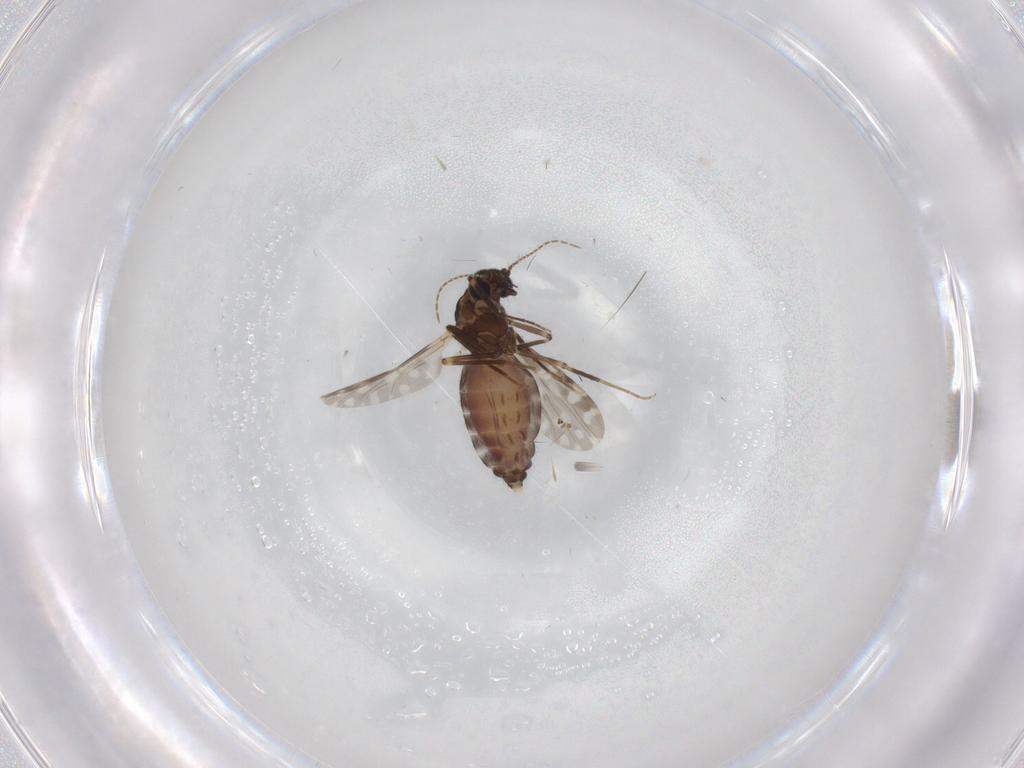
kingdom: Animalia
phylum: Arthropoda
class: Insecta
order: Diptera
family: Ceratopogonidae
